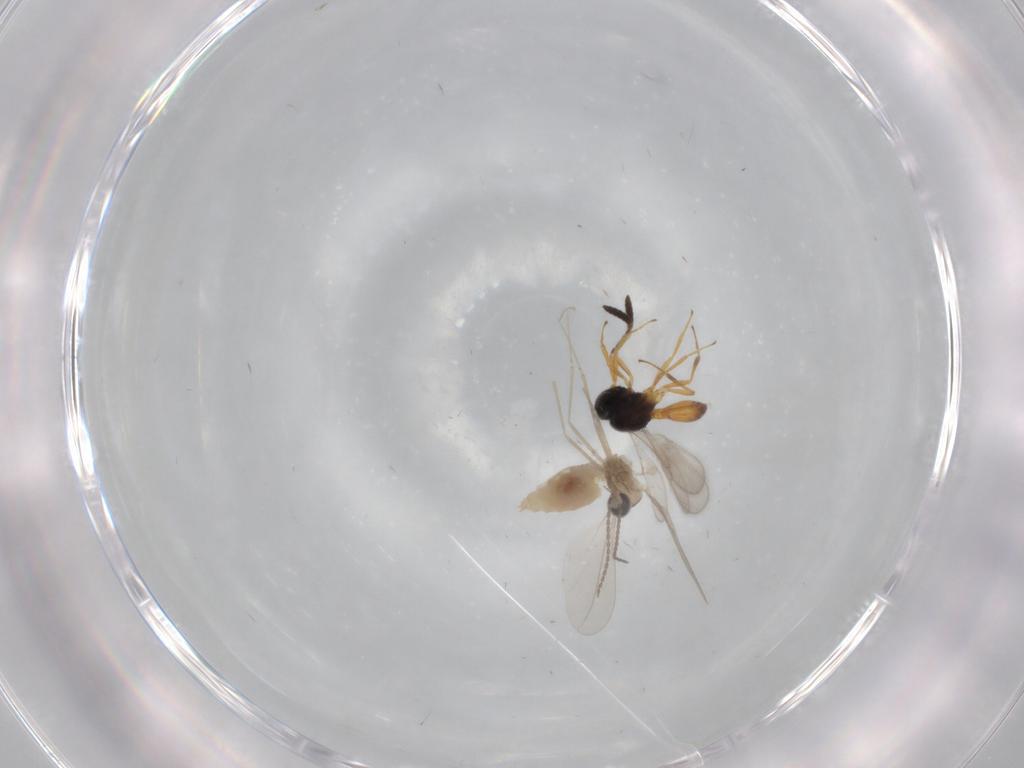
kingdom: Animalia
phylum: Arthropoda
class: Insecta
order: Hymenoptera
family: Scelionidae
